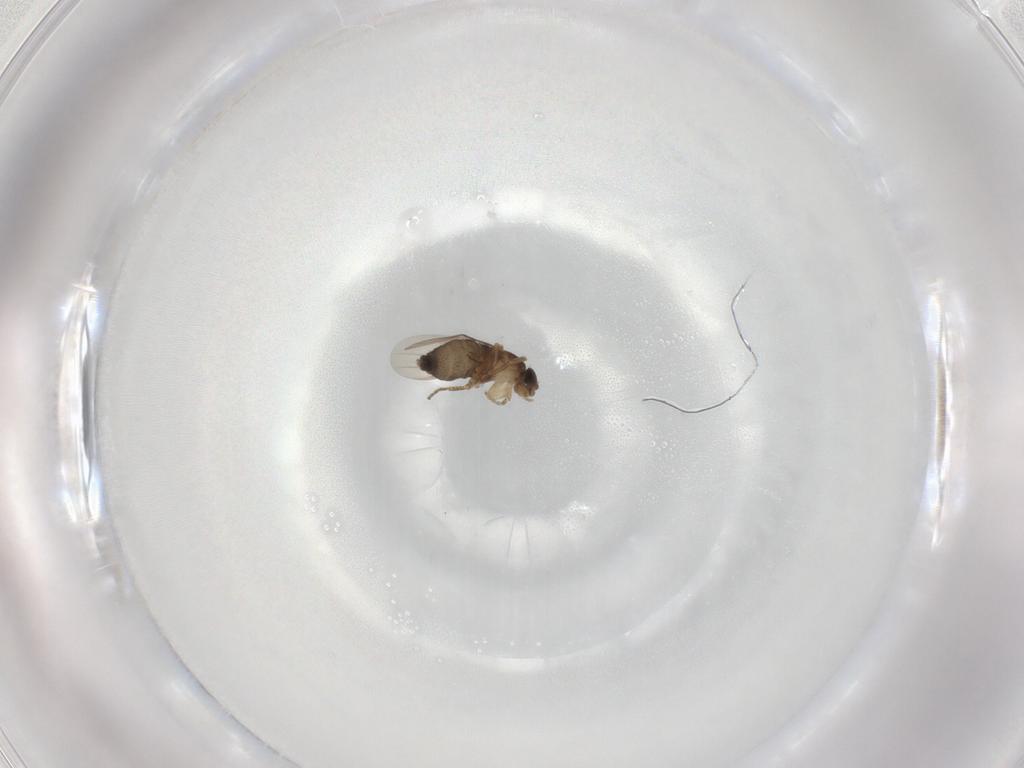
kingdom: Animalia
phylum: Arthropoda
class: Insecta
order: Diptera
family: Phoridae
